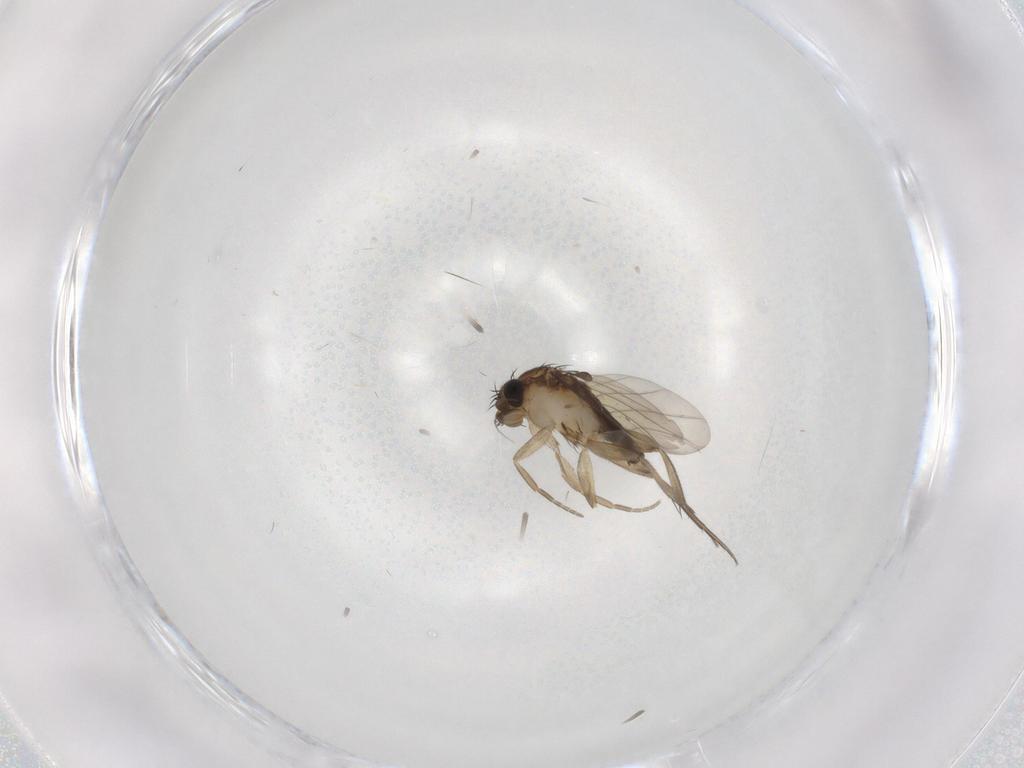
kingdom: Animalia
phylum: Arthropoda
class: Insecta
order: Diptera
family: Phoridae
